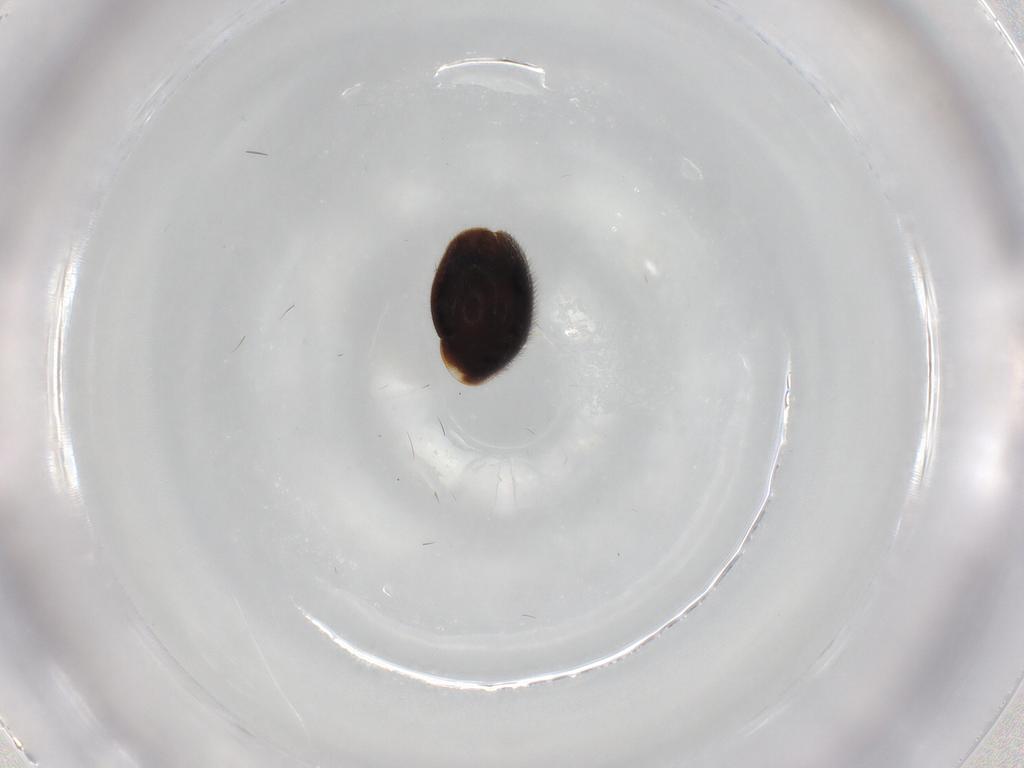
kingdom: Animalia
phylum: Arthropoda
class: Insecta
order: Coleoptera
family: Corylophidae
